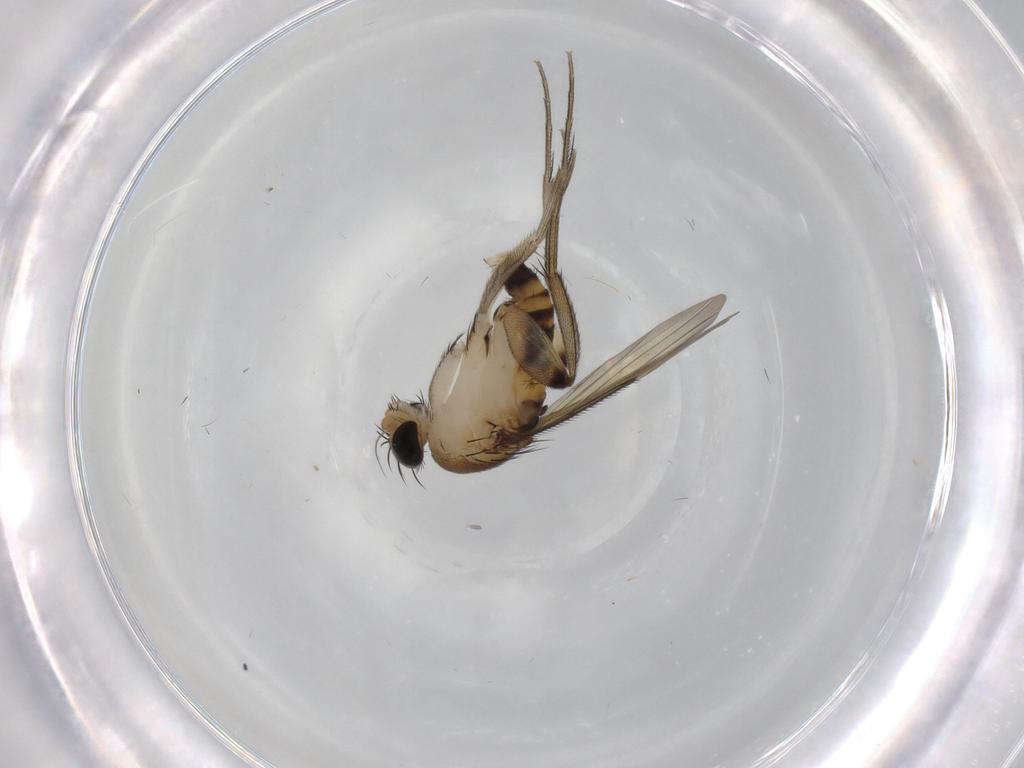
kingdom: Animalia
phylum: Arthropoda
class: Insecta
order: Diptera
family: Phoridae
